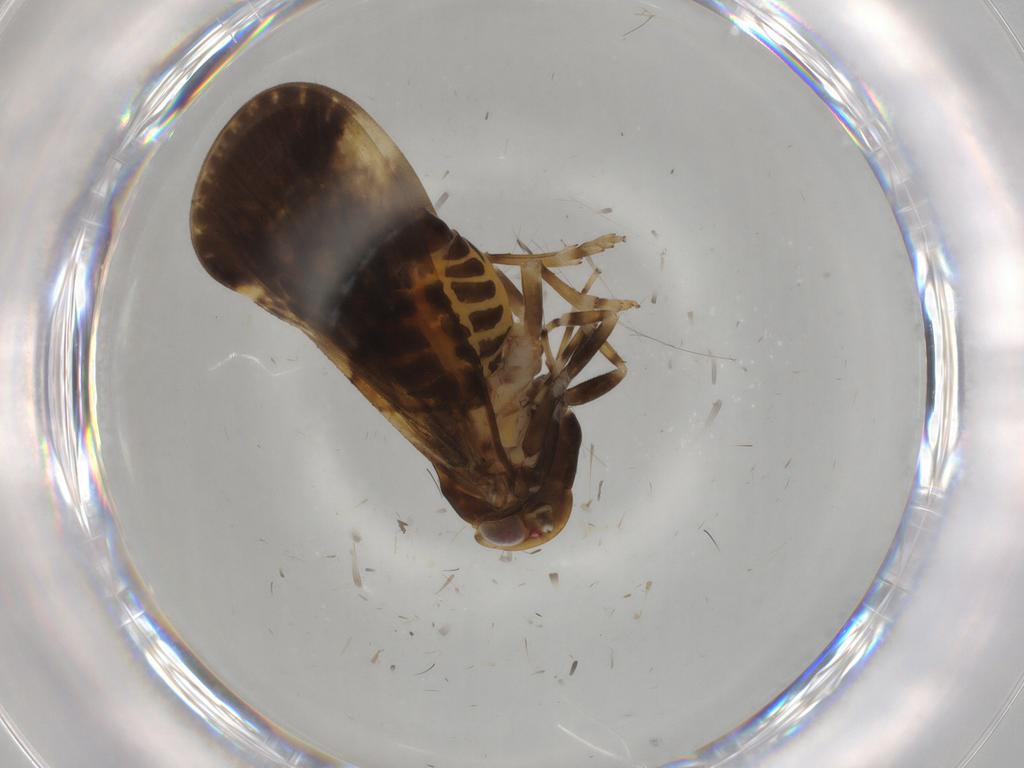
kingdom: Animalia
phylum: Arthropoda
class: Insecta
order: Hemiptera
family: Cixiidae
